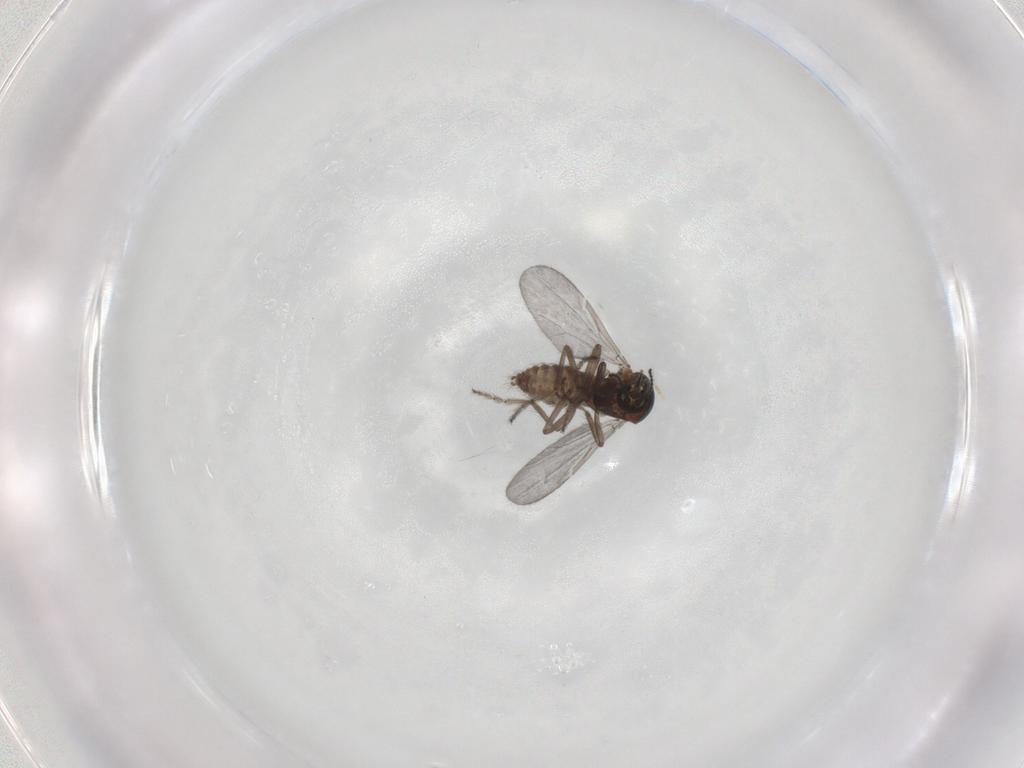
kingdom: Animalia
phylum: Arthropoda
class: Insecta
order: Diptera
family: Ceratopogonidae
